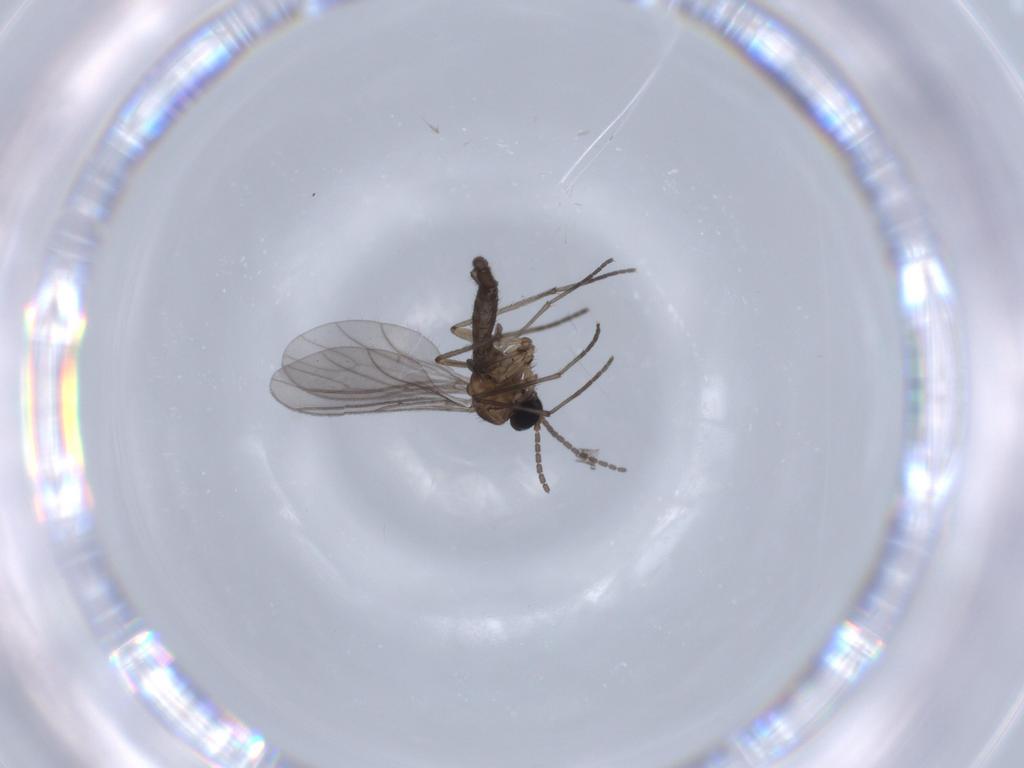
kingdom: Animalia
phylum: Arthropoda
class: Insecta
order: Diptera
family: Sciaridae
